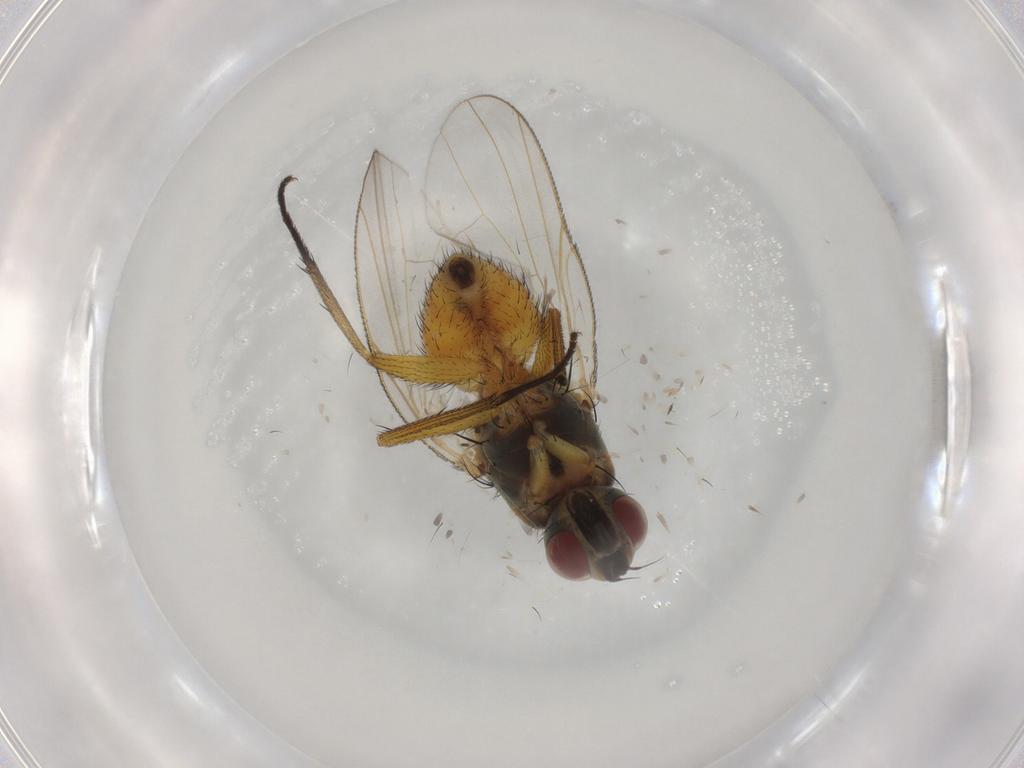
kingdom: Animalia
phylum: Arthropoda
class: Insecta
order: Diptera
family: Muscidae
